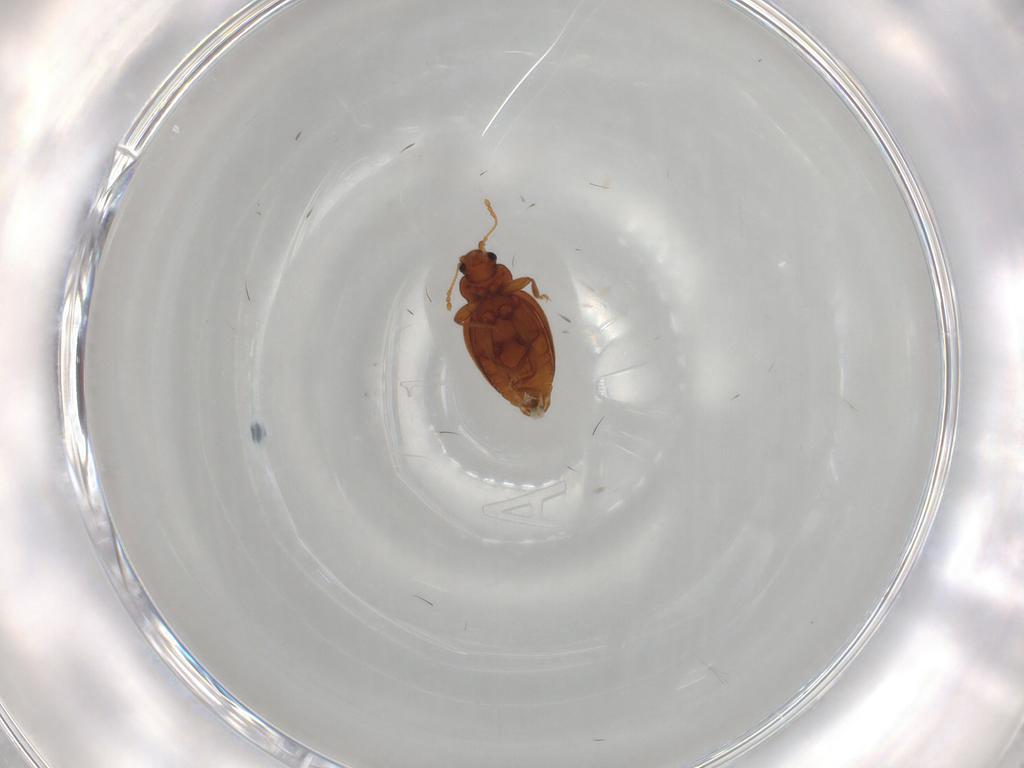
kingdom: Animalia
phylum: Arthropoda
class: Insecta
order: Coleoptera
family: Latridiidae
